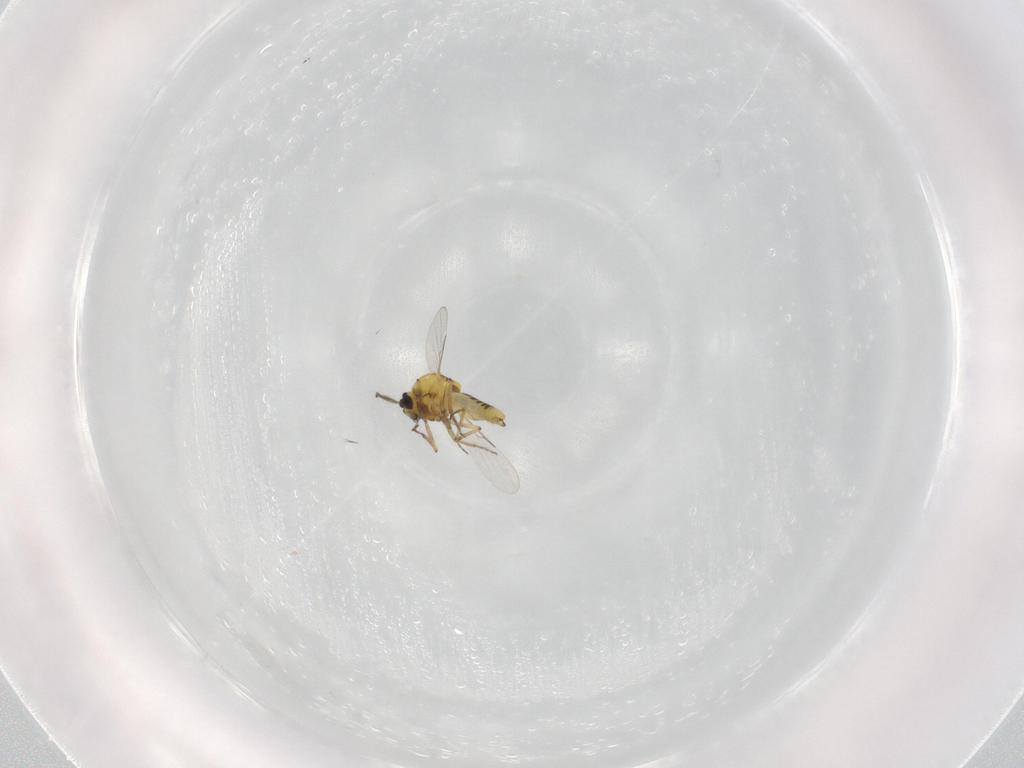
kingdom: Animalia
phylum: Arthropoda
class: Insecta
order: Diptera
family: Ceratopogonidae
